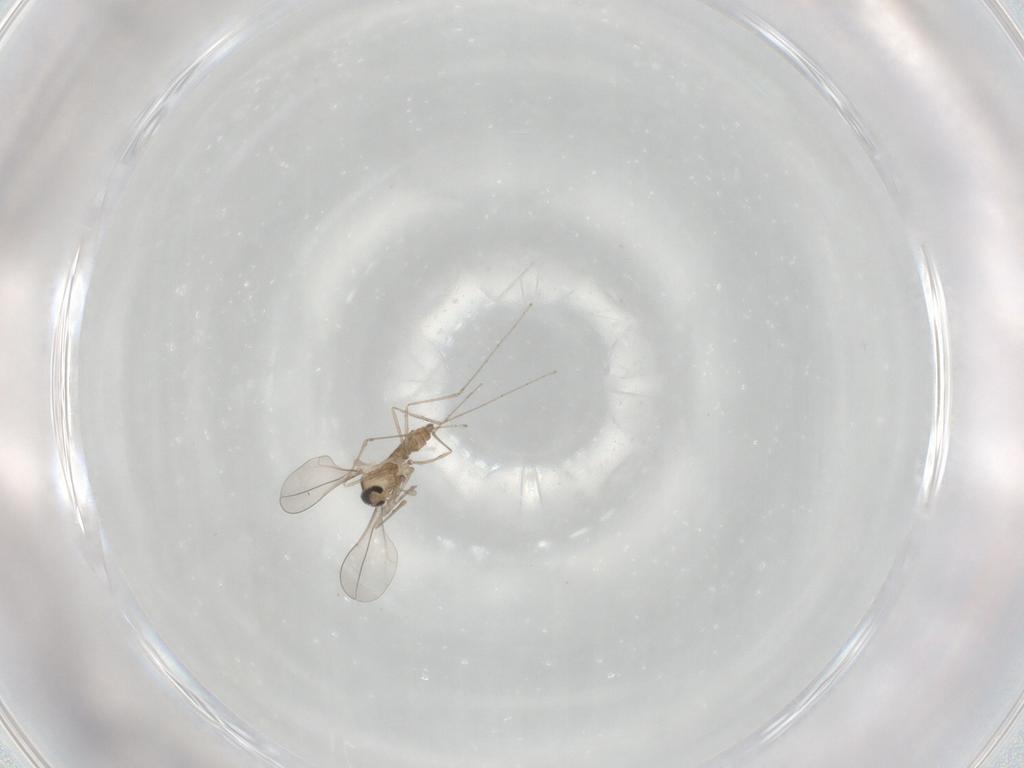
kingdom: Animalia
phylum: Arthropoda
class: Insecta
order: Diptera
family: Cecidomyiidae
